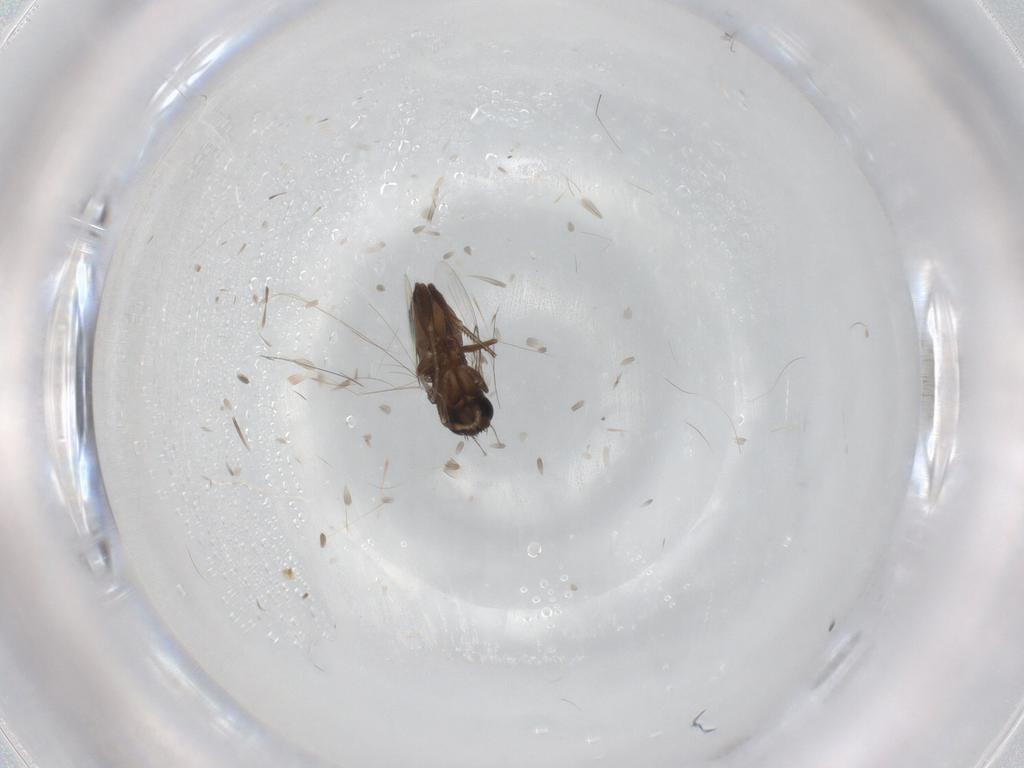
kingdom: Animalia
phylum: Arthropoda
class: Insecta
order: Diptera
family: Phoridae
